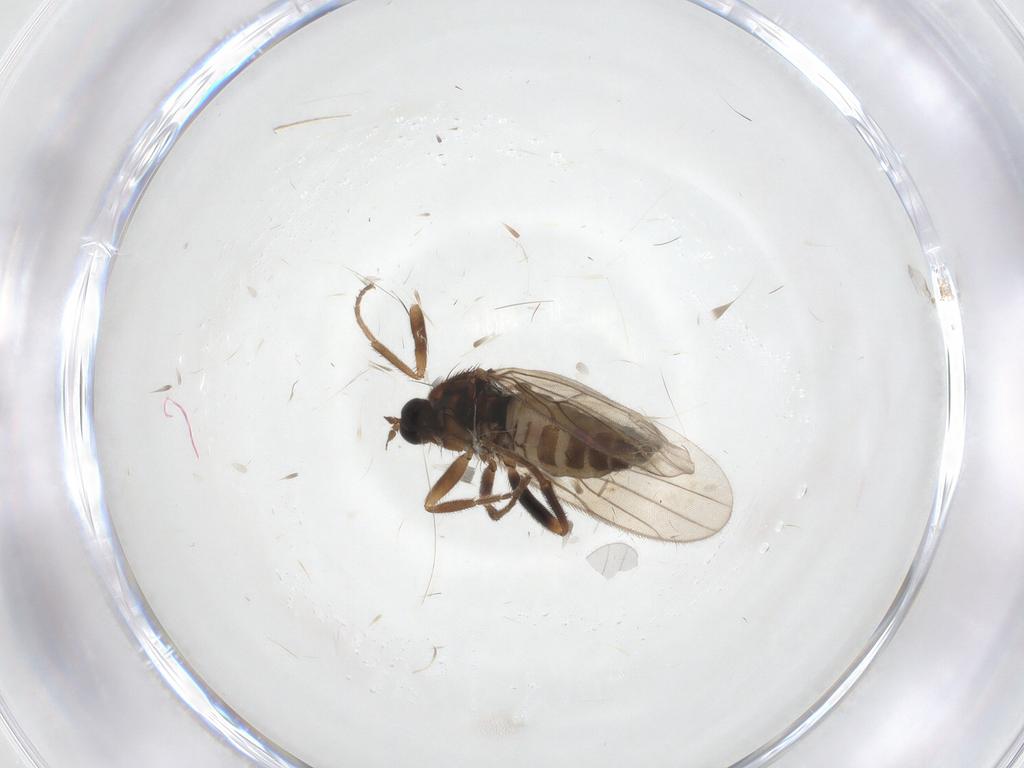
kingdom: Animalia
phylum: Arthropoda
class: Insecta
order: Diptera
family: Hybotidae
